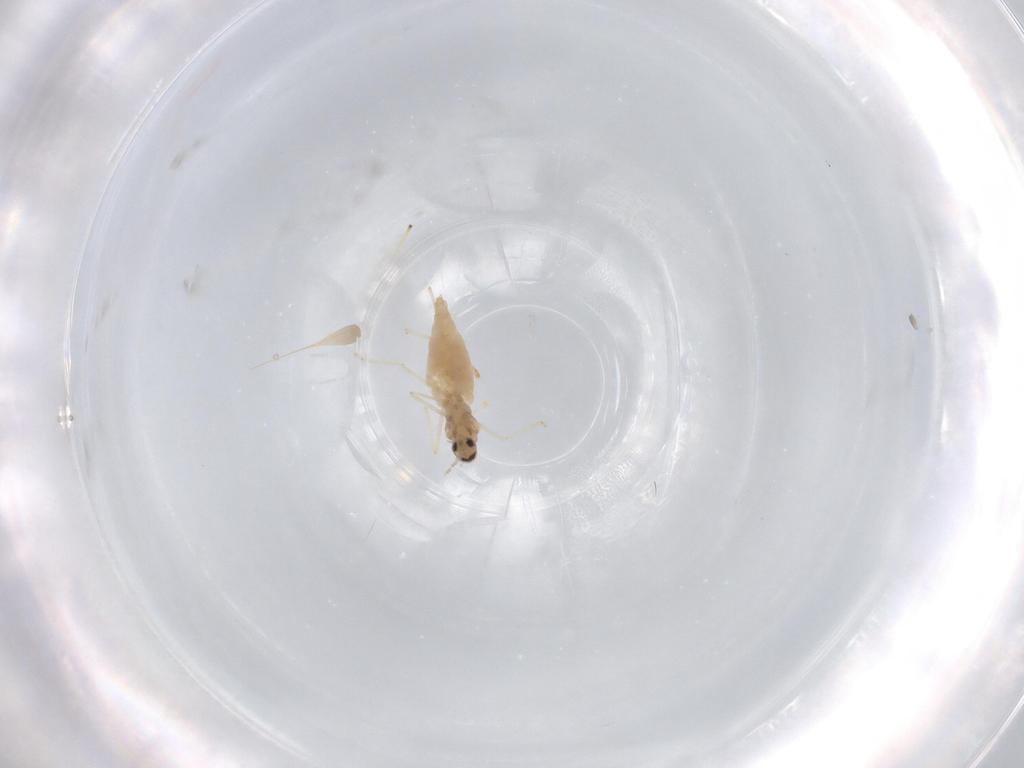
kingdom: Animalia
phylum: Arthropoda
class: Insecta
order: Diptera
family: Cecidomyiidae
